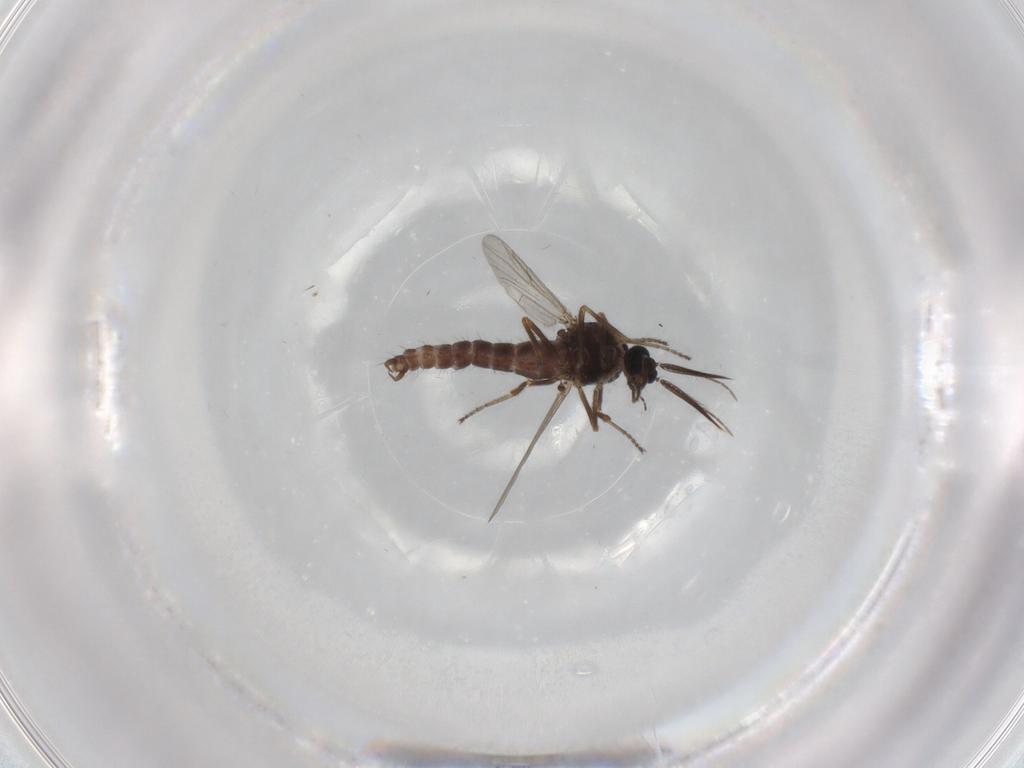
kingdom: Animalia
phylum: Arthropoda
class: Insecta
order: Diptera
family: Ceratopogonidae
